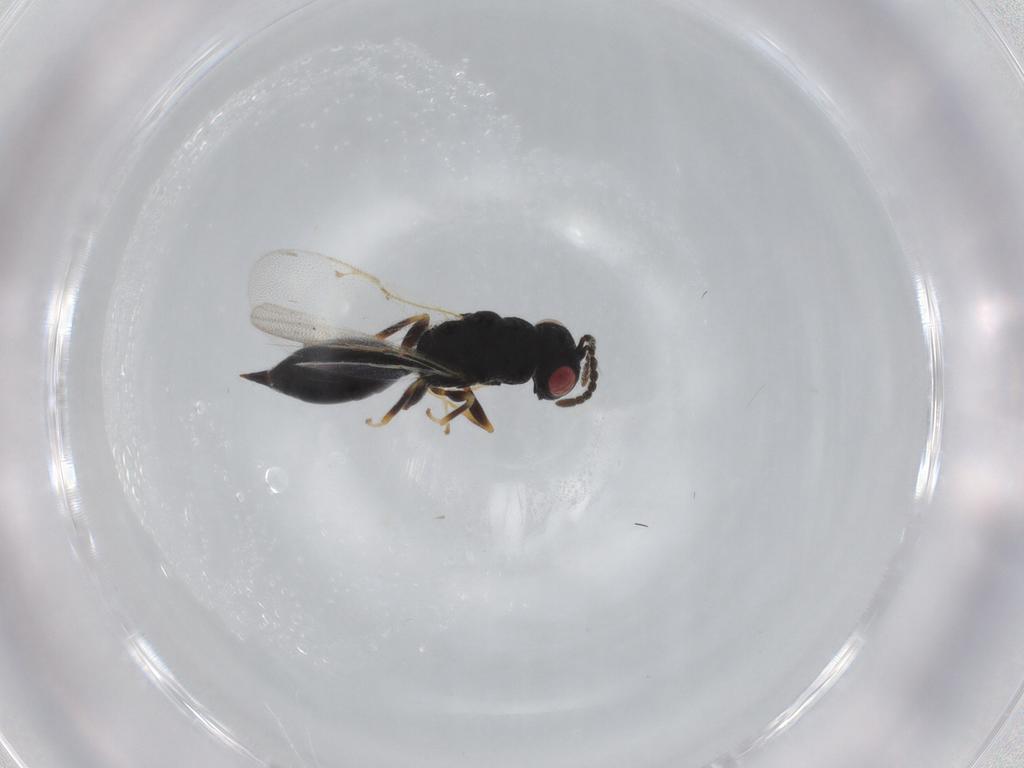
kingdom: Animalia
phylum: Arthropoda
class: Insecta
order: Hymenoptera
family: Eurytomidae
